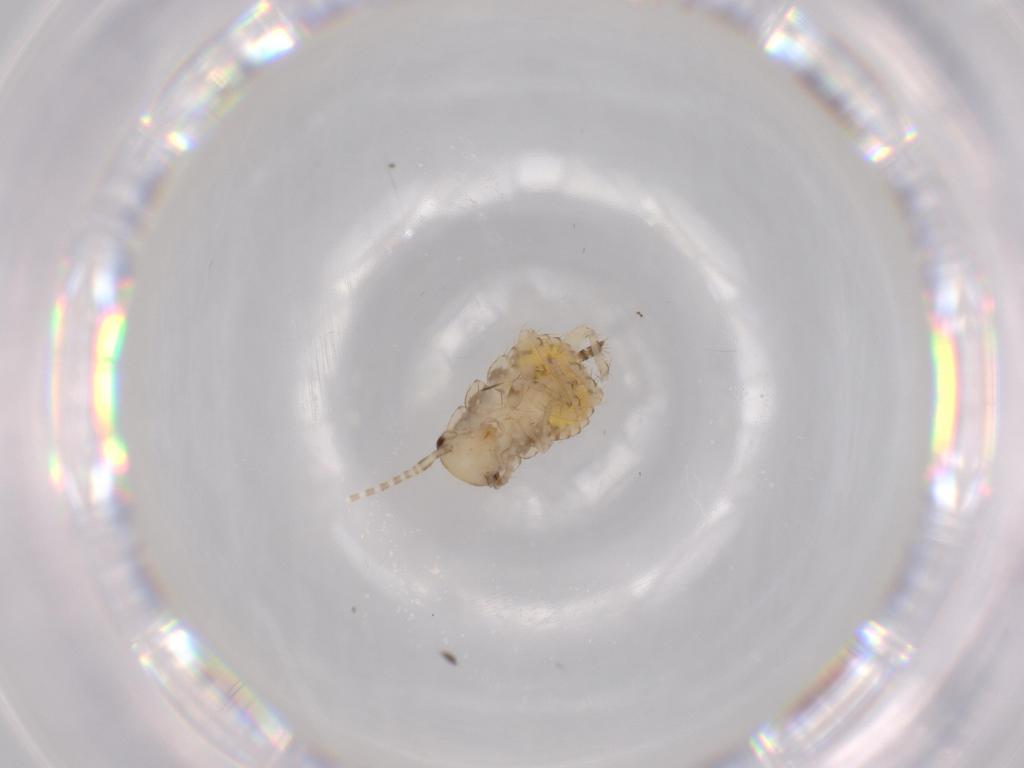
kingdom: Animalia
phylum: Arthropoda
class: Insecta
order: Blattodea
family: Ectobiidae
